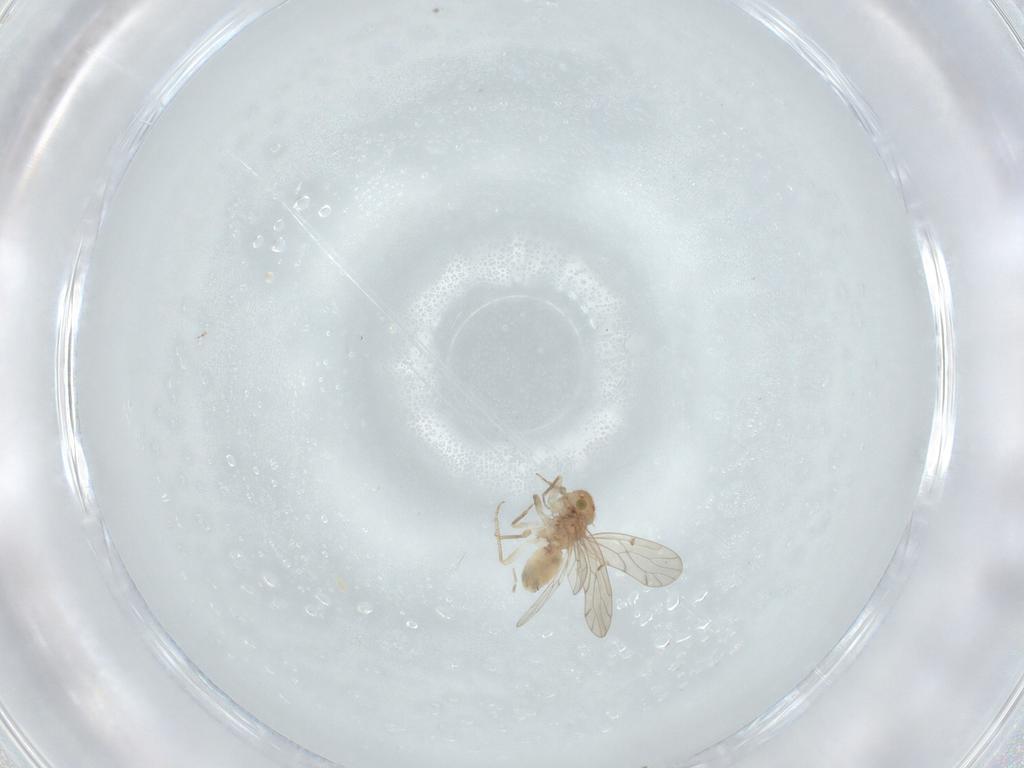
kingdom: Animalia
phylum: Arthropoda
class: Insecta
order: Psocodea
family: Ectopsocidae
